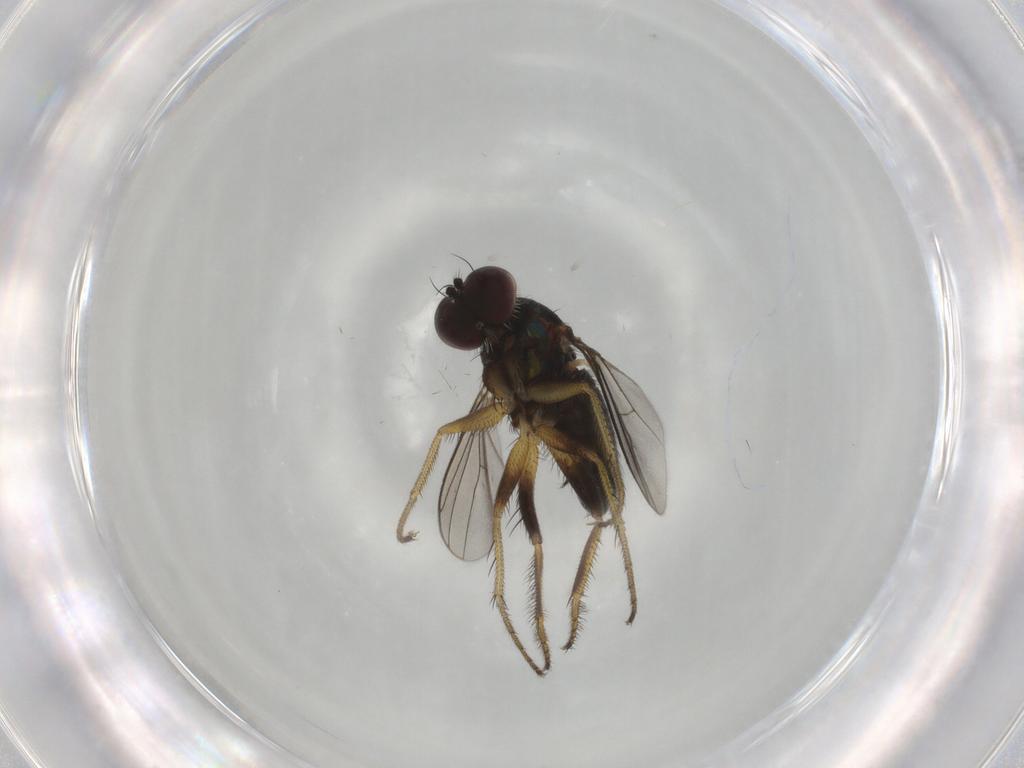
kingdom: Animalia
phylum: Arthropoda
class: Insecta
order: Diptera
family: Dolichopodidae
